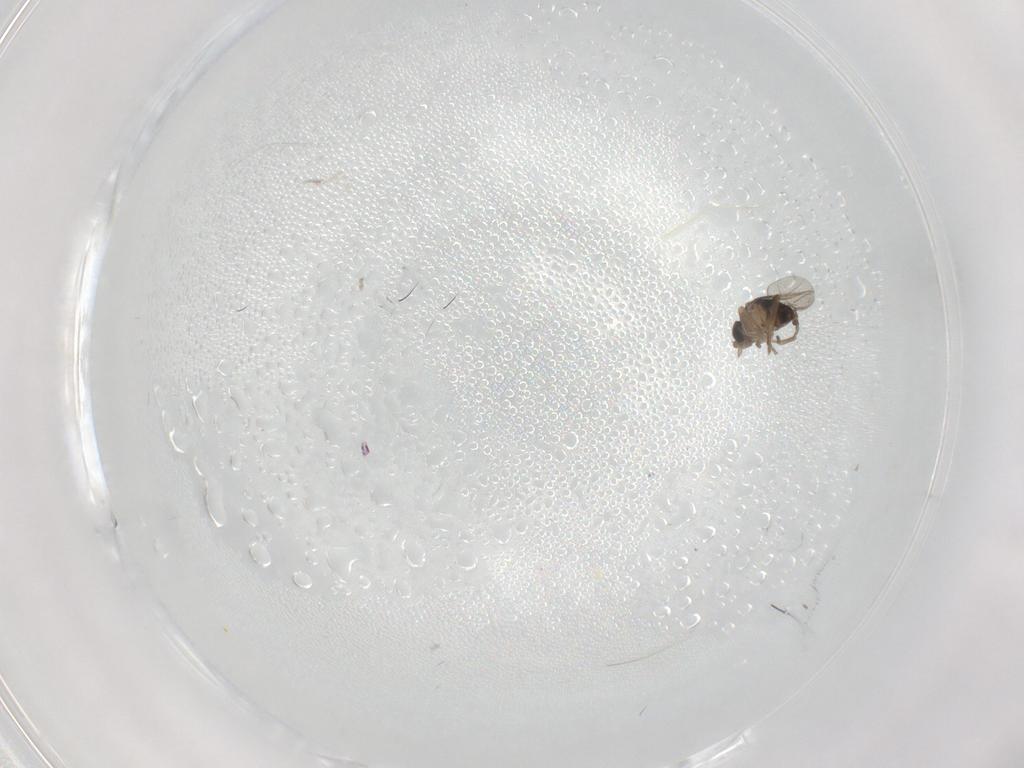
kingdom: Animalia
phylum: Arthropoda
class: Insecta
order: Diptera
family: Phoridae
